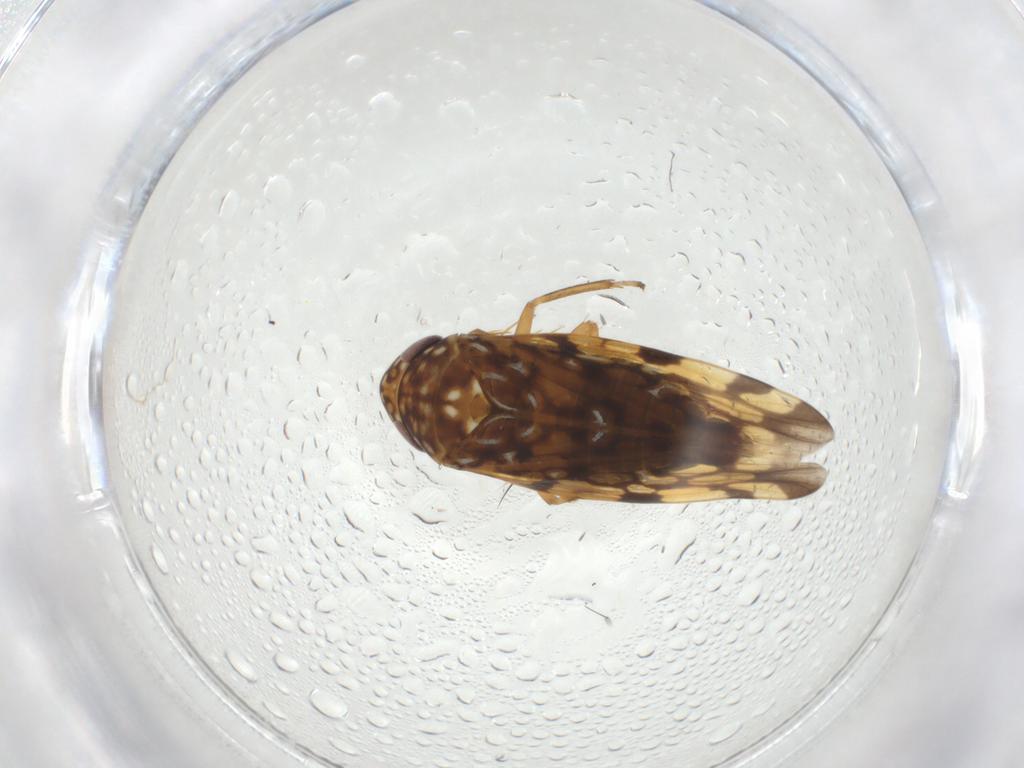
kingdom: Animalia
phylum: Arthropoda
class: Insecta
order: Hemiptera
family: Cicadellidae
